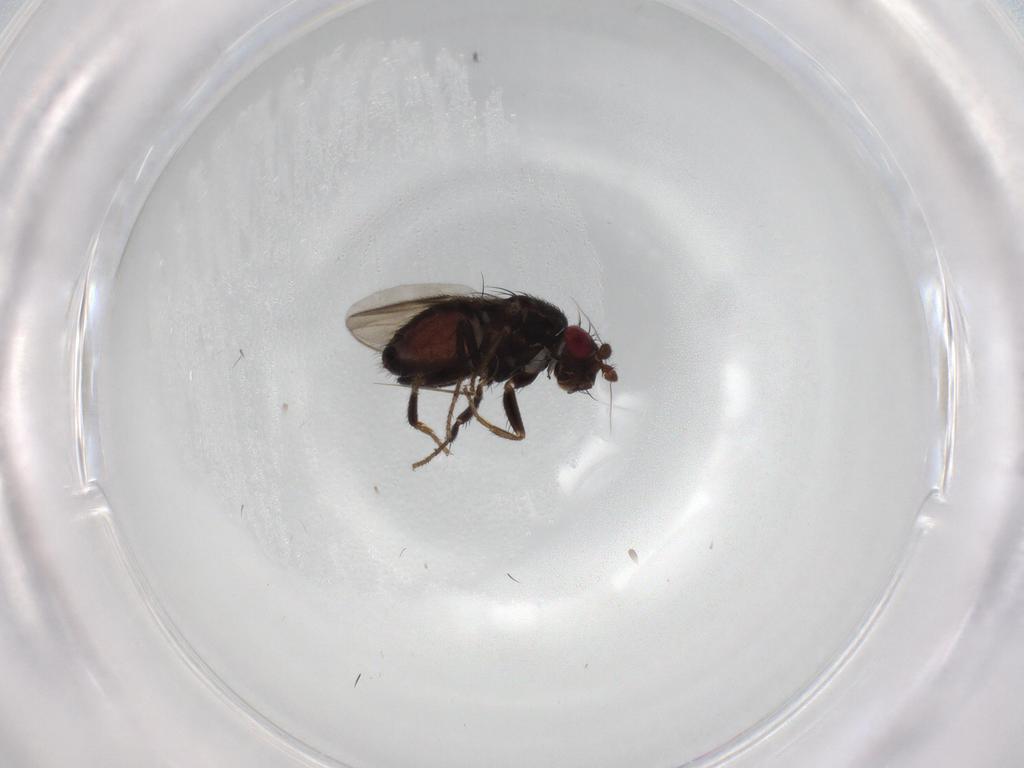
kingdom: Animalia
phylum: Arthropoda
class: Insecta
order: Diptera
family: Sphaeroceridae
